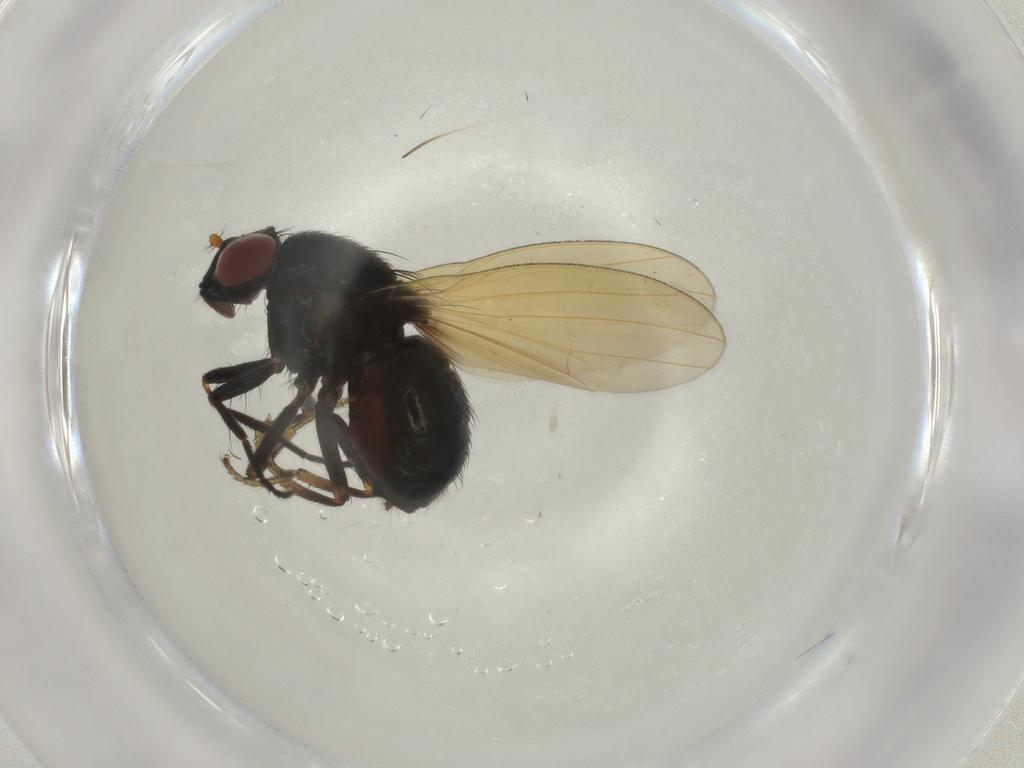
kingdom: Animalia
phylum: Arthropoda
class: Insecta
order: Diptera
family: Lauxaniidae
